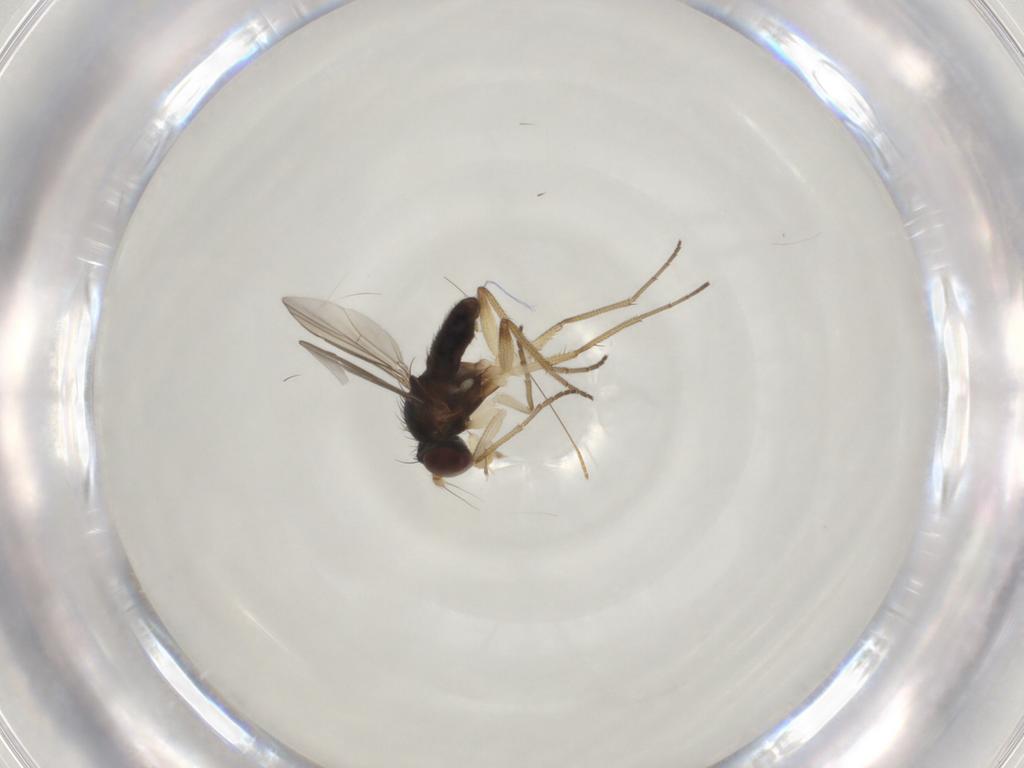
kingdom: Animalia
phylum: Arthropoda
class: Insecta
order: Diptera
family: Dolichopodidae
